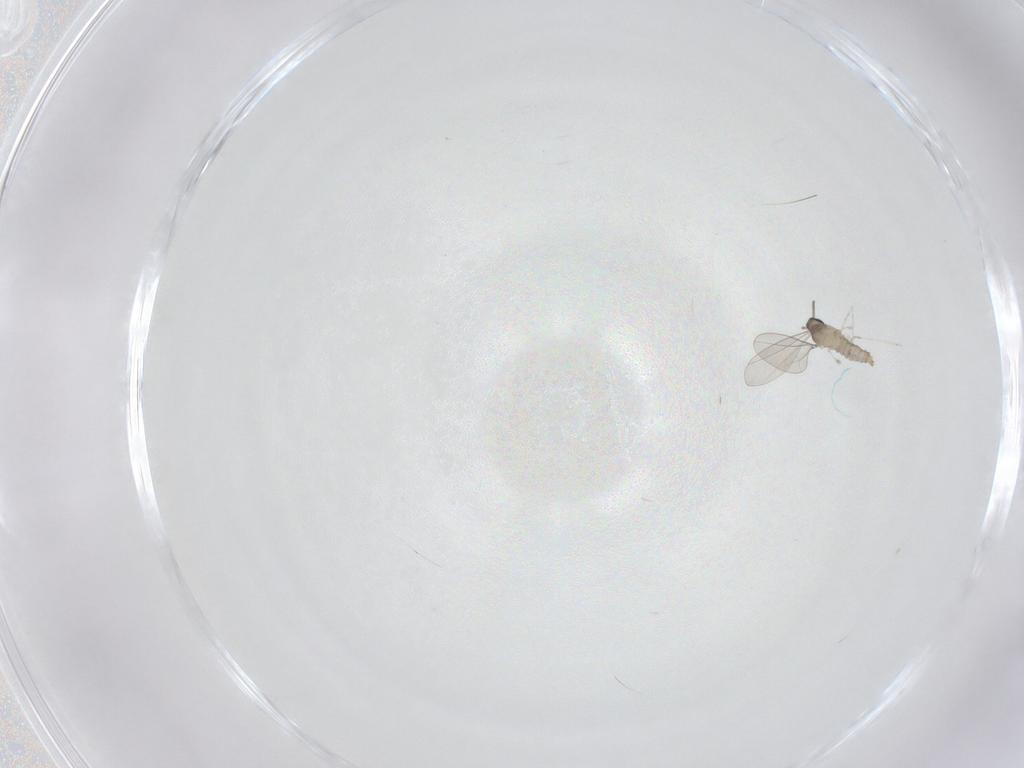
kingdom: Animalia
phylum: Arthropoda
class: Insecta
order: Diptera
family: Cecidomyiidae
